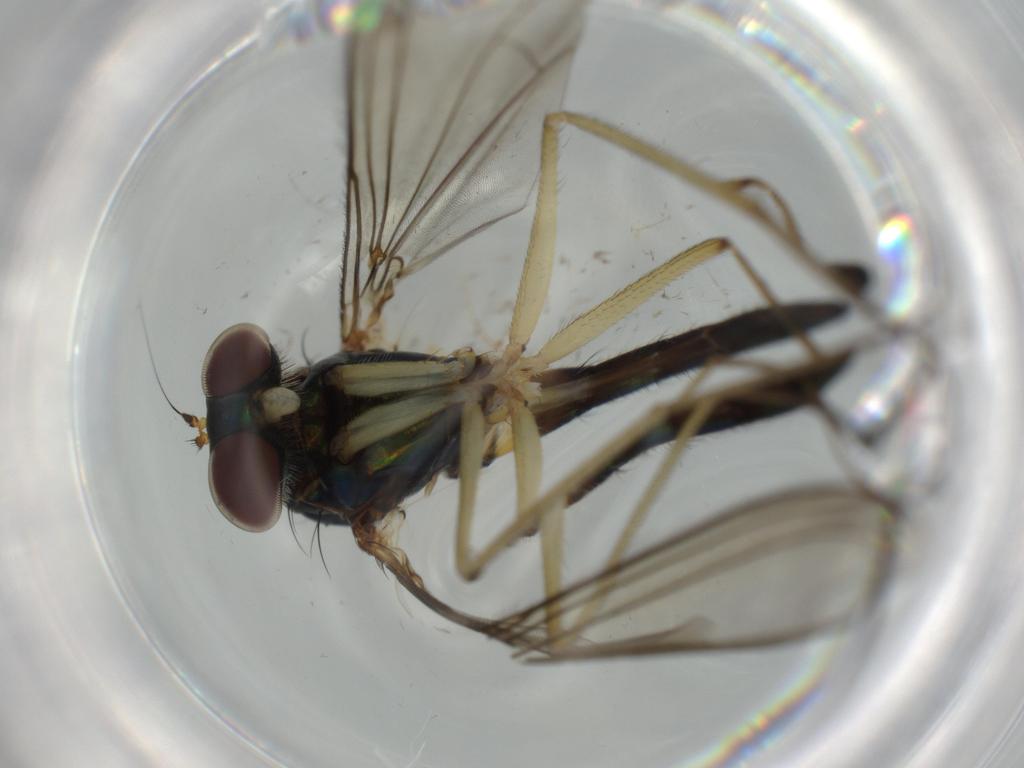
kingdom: Animalia
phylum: Arthropoda
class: Insecta
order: Diptera
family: Dolichopodidae
